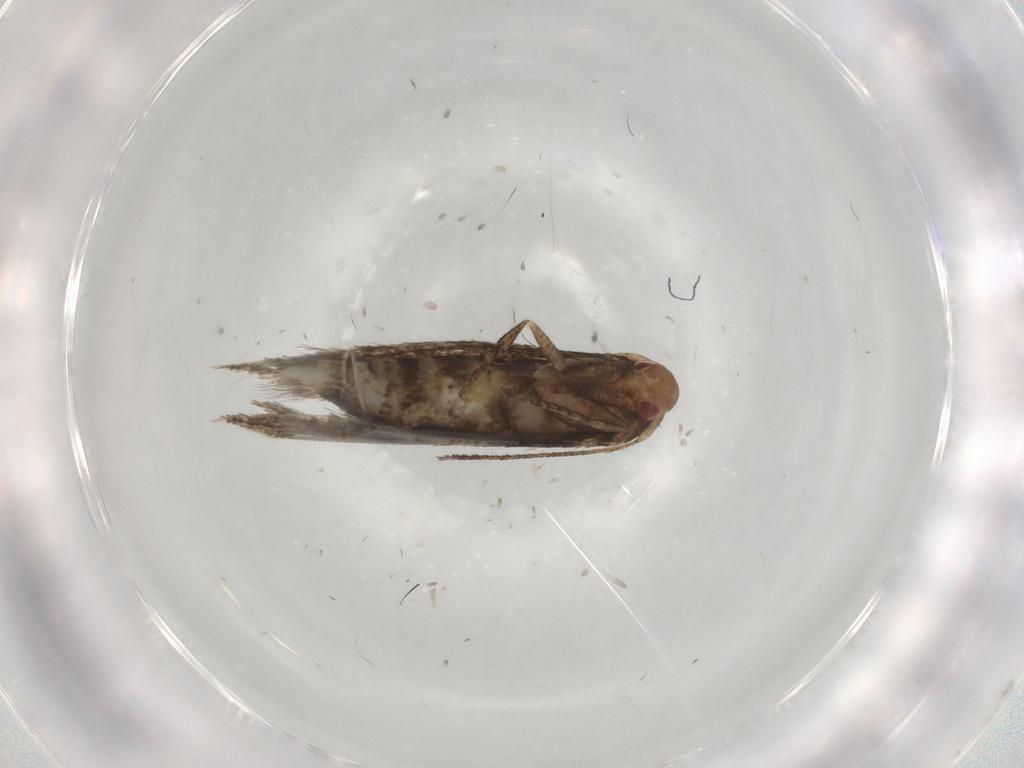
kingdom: Animalia
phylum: Arthropoda
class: Insecta
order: Lepidoptera
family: Momphidae
